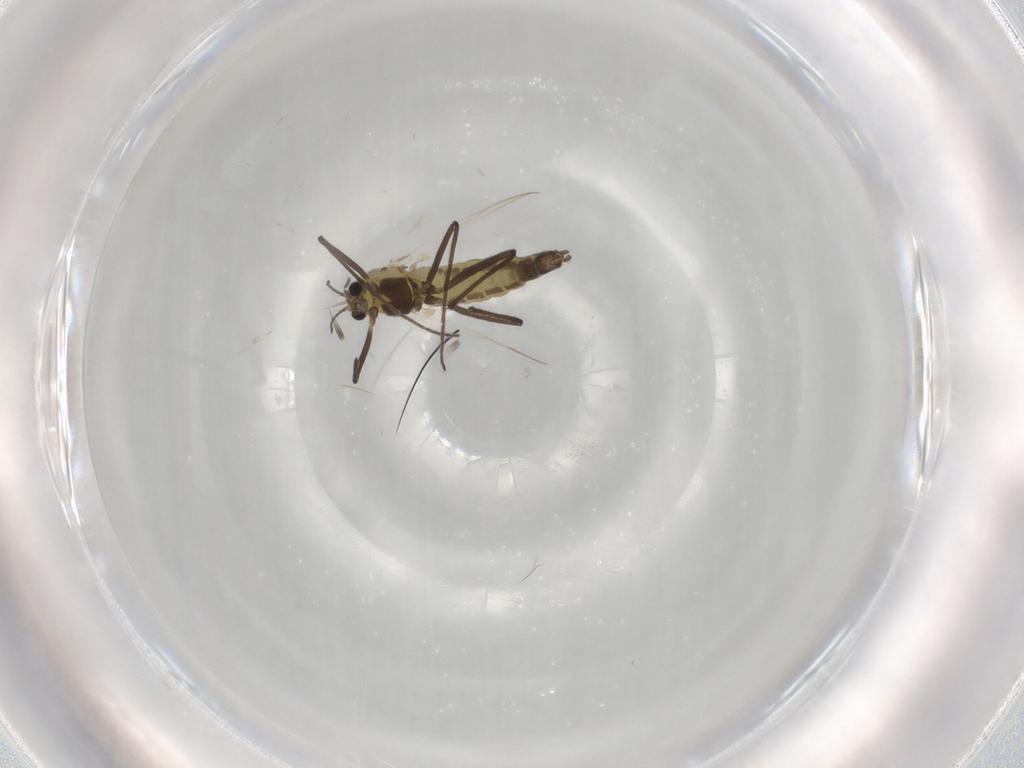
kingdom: Animalia
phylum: Arthropoda
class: Insecta
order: Diptera
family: Chironomidae
